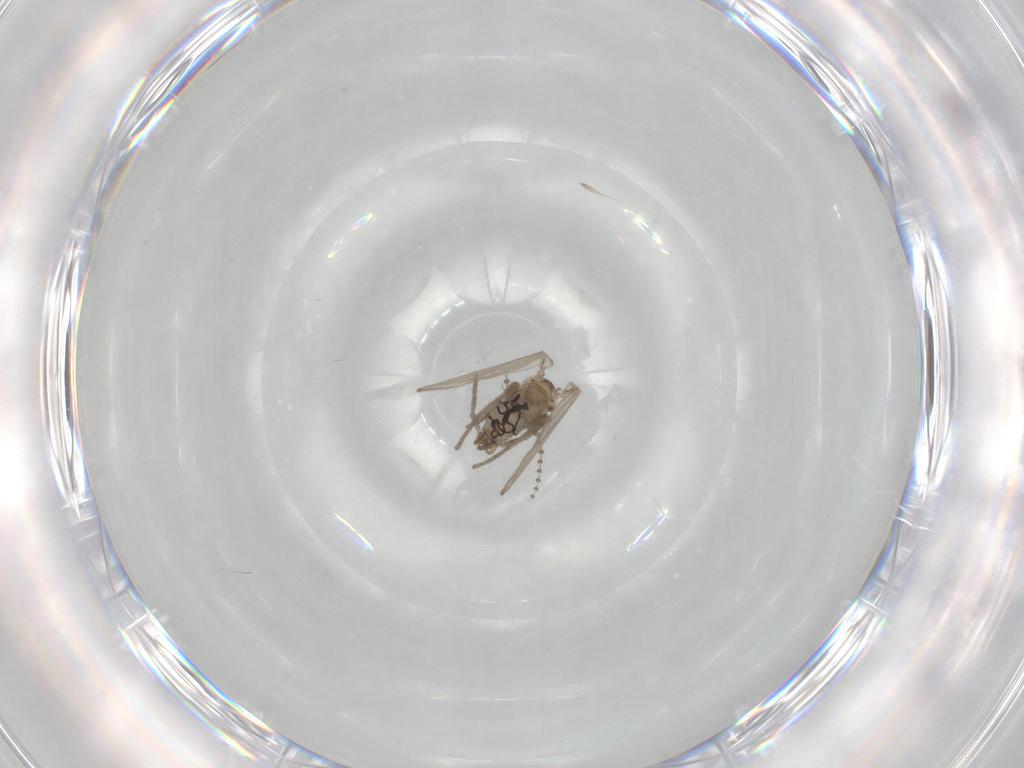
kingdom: Animalia
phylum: Arthropoda
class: Insecta
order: Diptera
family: Psychodidae
